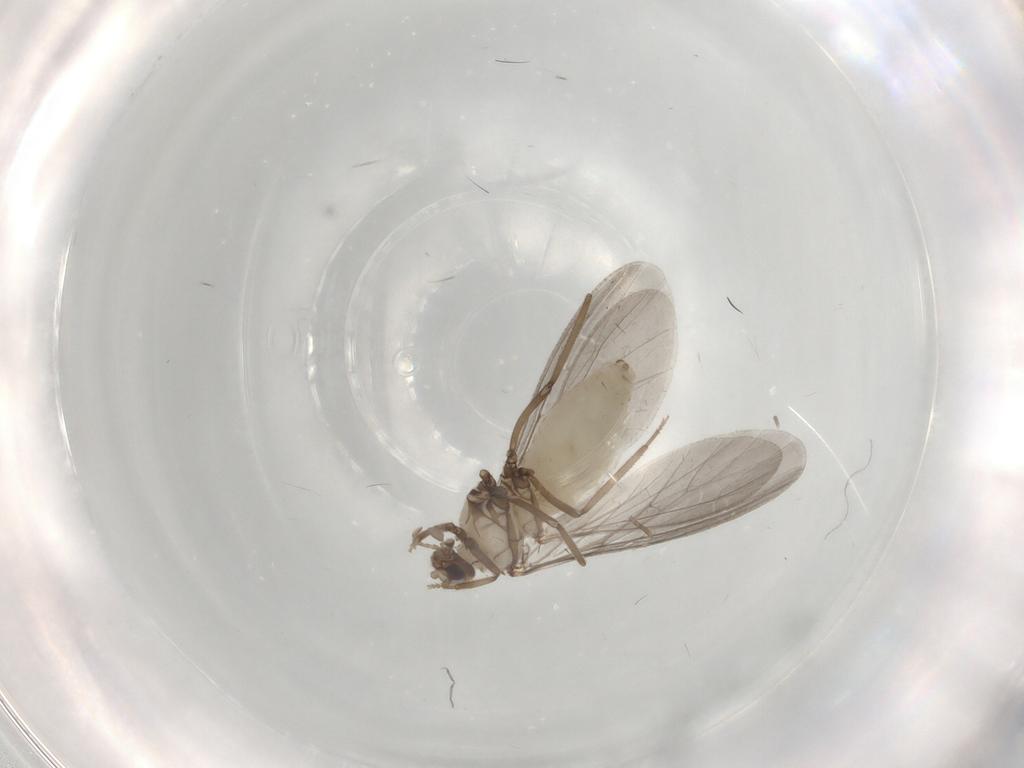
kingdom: Animalia
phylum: Arthropoda
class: Insecta
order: Neuroptera
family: Coniopterygidae
